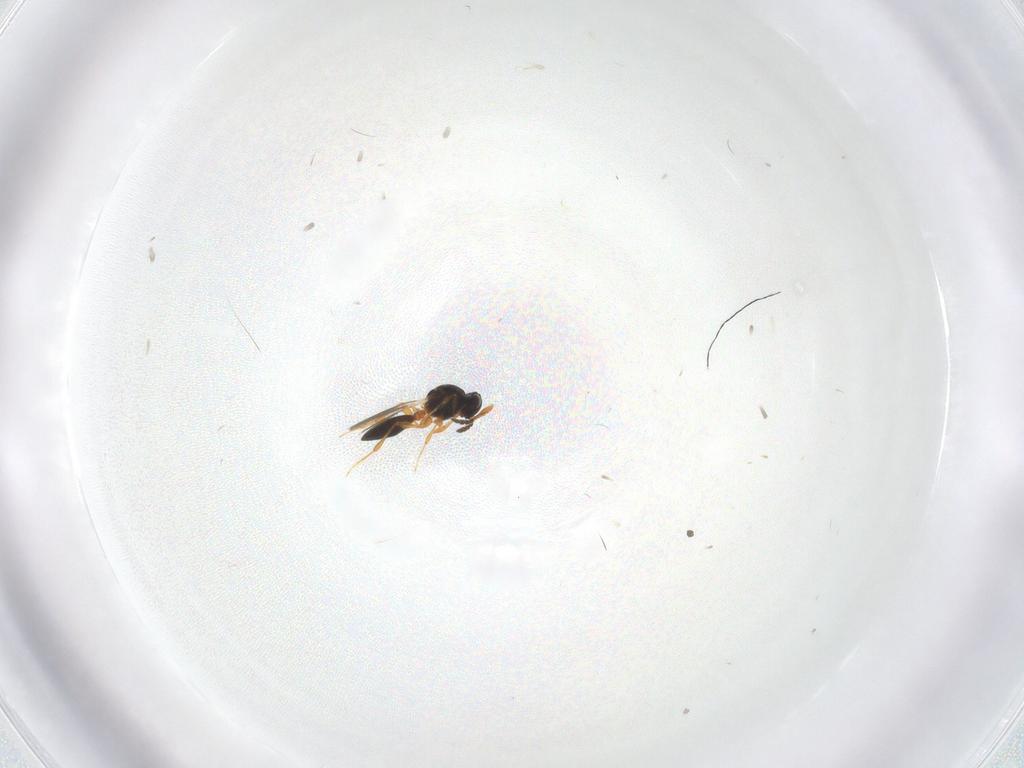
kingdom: Animalia
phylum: Arthropoda
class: Insecta
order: Hymenoptera
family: Platygastridae
